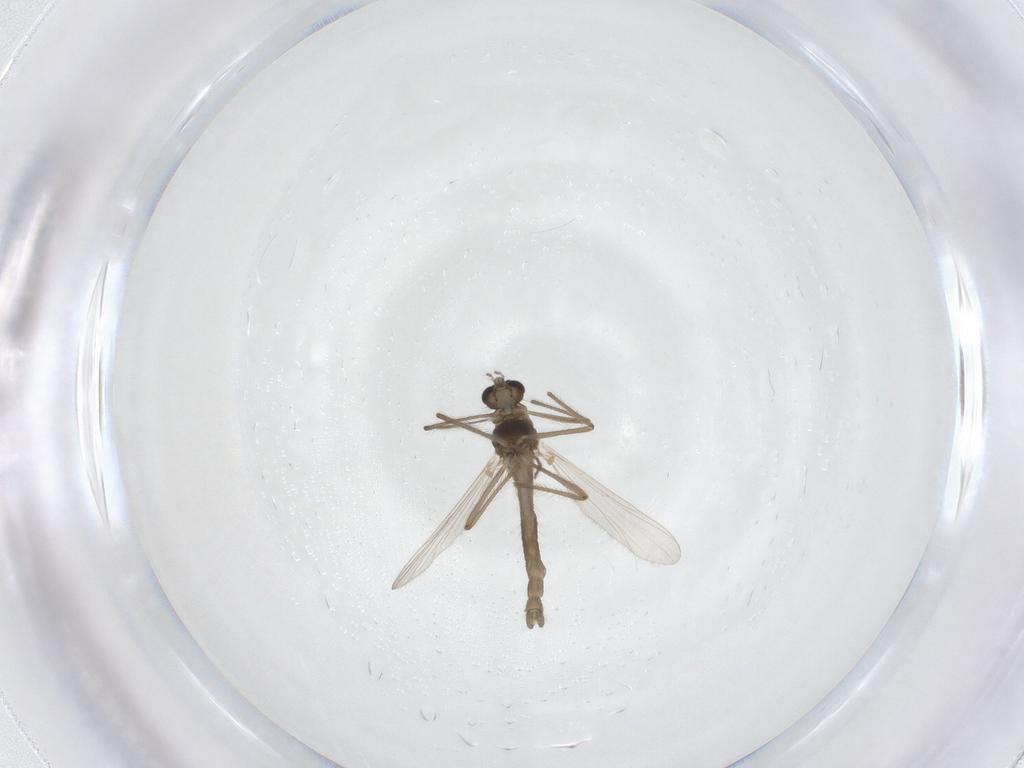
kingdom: Animalia
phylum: Arthropoda
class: Insecta
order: Diptera
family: Chironomidae
